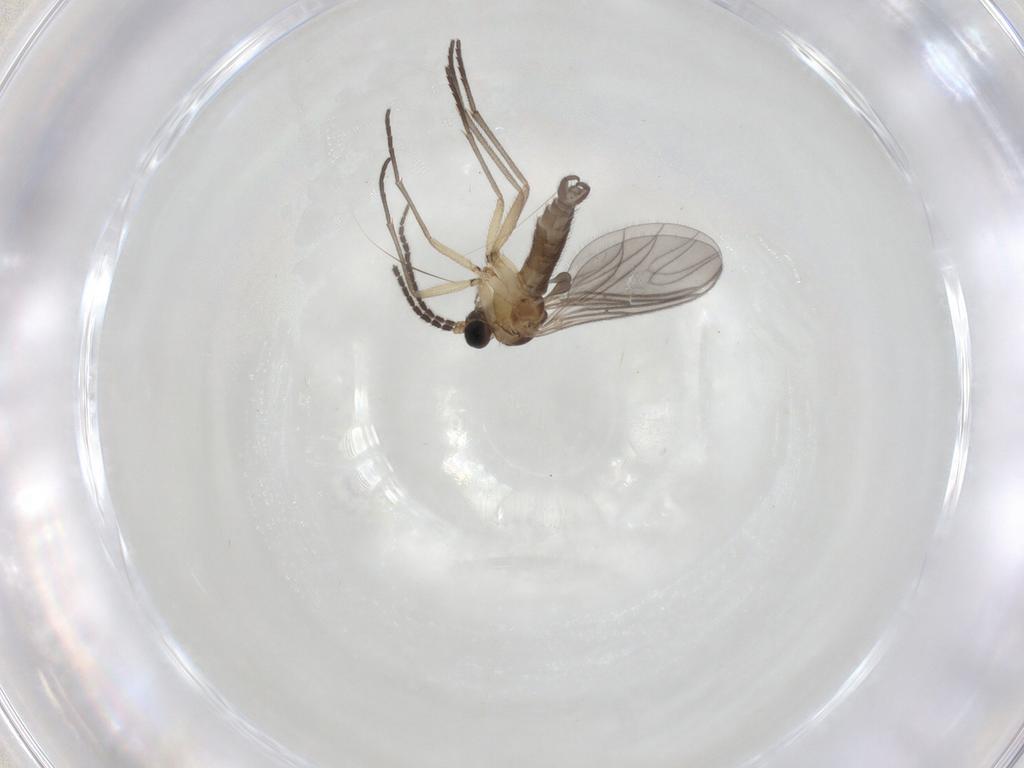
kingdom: Animalia
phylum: Arthropoda
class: Insecta
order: Diptera
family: Sciaridae
